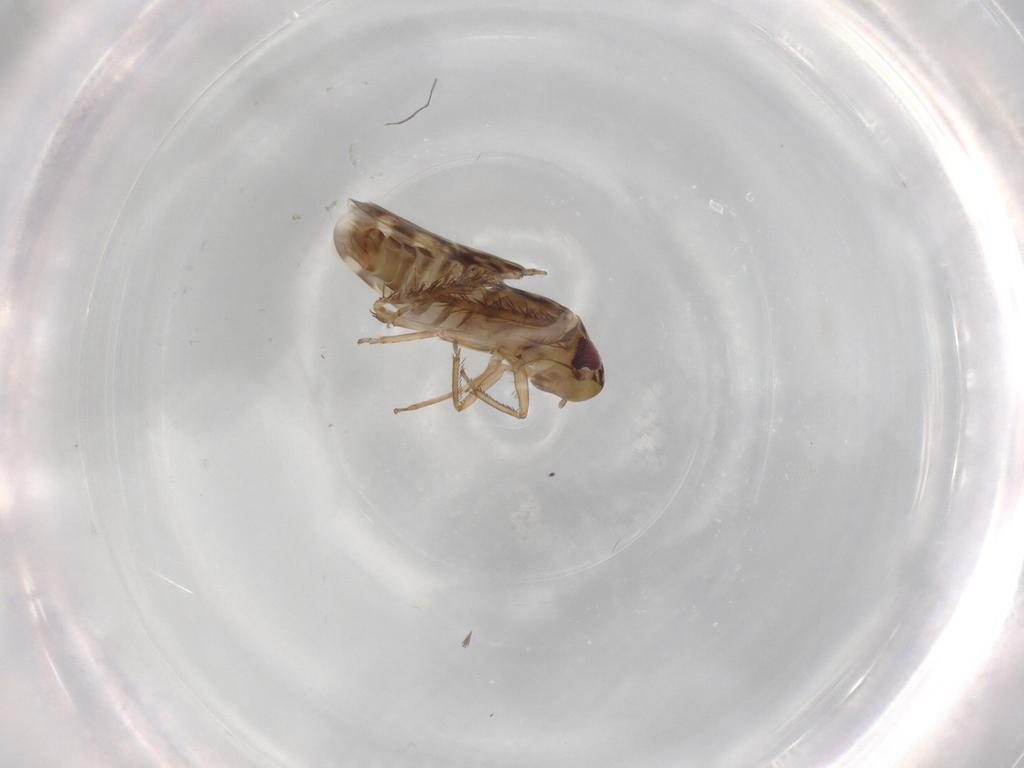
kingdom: Animalia
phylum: Arthropoda
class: Insecta
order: Hemiptera
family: Cicadellidae
